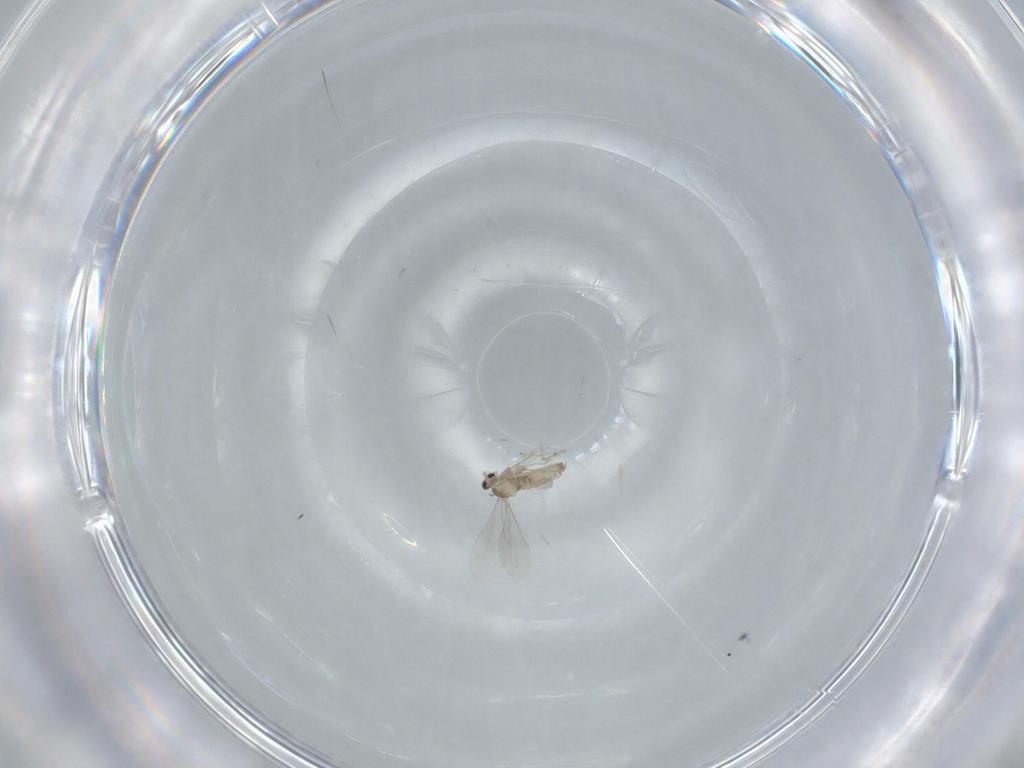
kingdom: Animalia
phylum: Arthropoda
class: Insecta
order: Diptera
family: Cecidomyiidae
